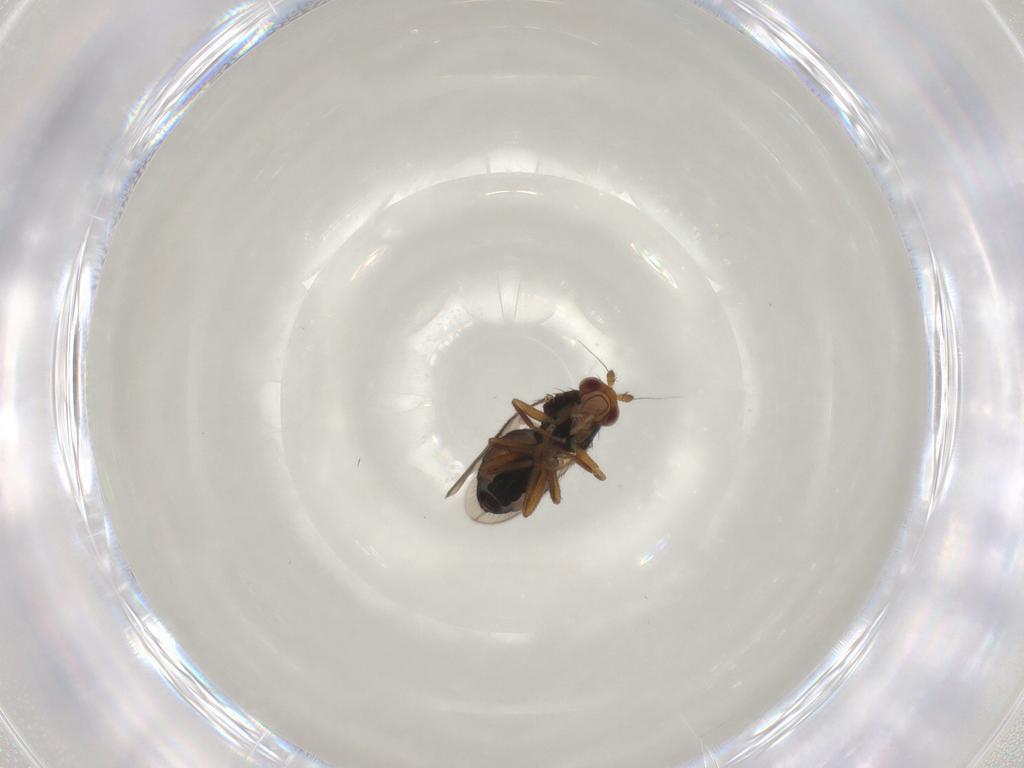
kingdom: Animalia
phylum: Arthropoda
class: Insecta
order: Diptera
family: Sphaeroceridae
